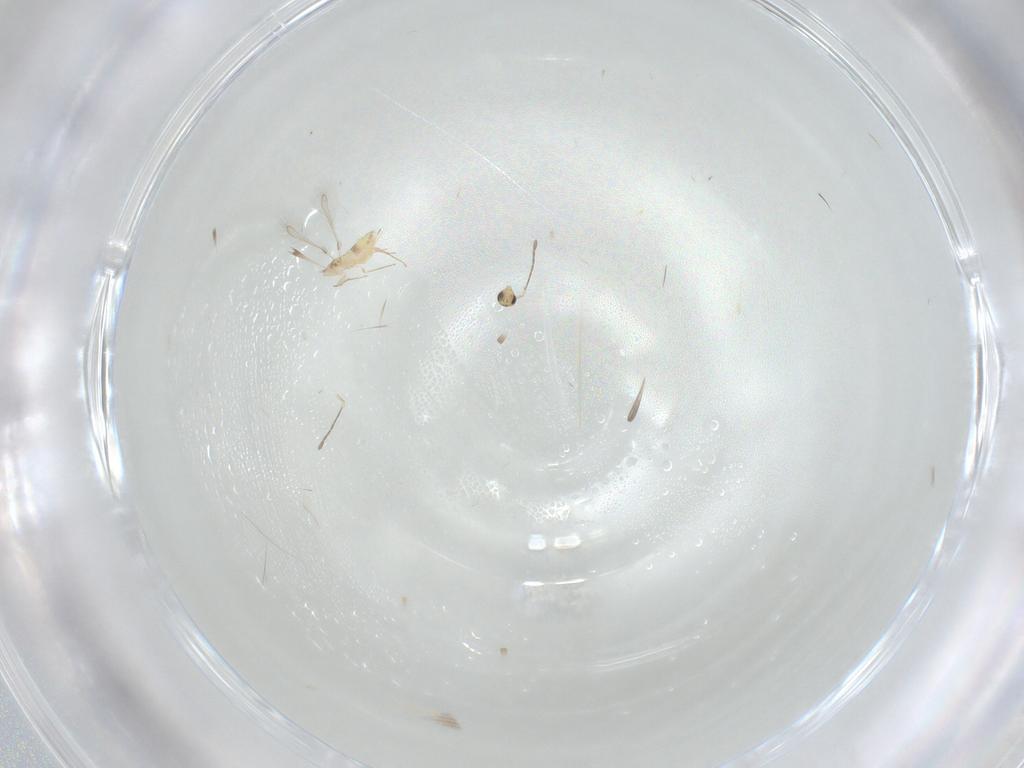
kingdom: Animalia
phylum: Arthropoda
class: Insecta
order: Hymenoptera
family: Mymaridae
